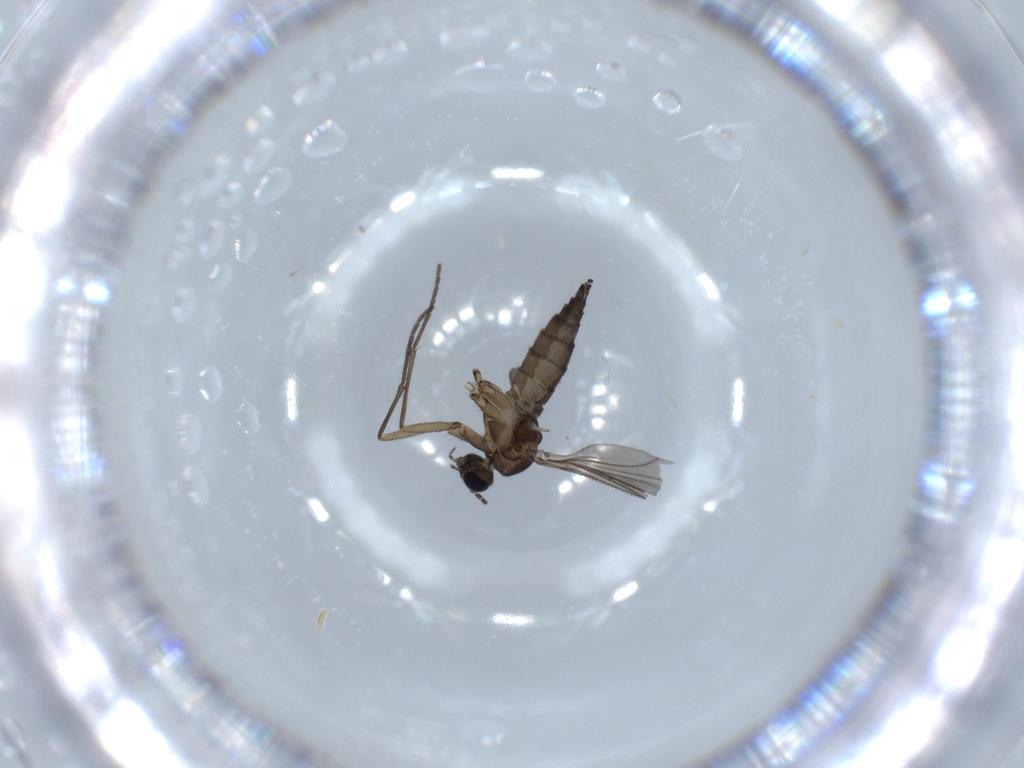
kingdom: Animalia
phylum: Arthropoda
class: Insecta
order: Diptera
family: Sciaridae
